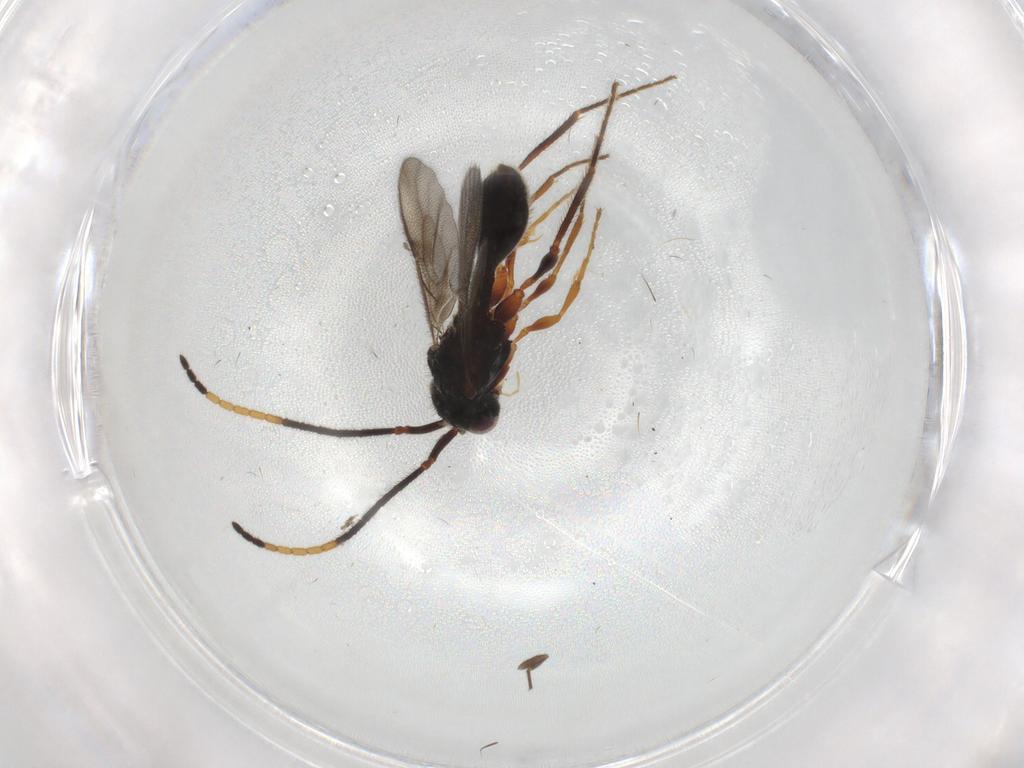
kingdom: Animalia
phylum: Arthropoda
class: Insecta
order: Hymenoptera
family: Diapriidae
